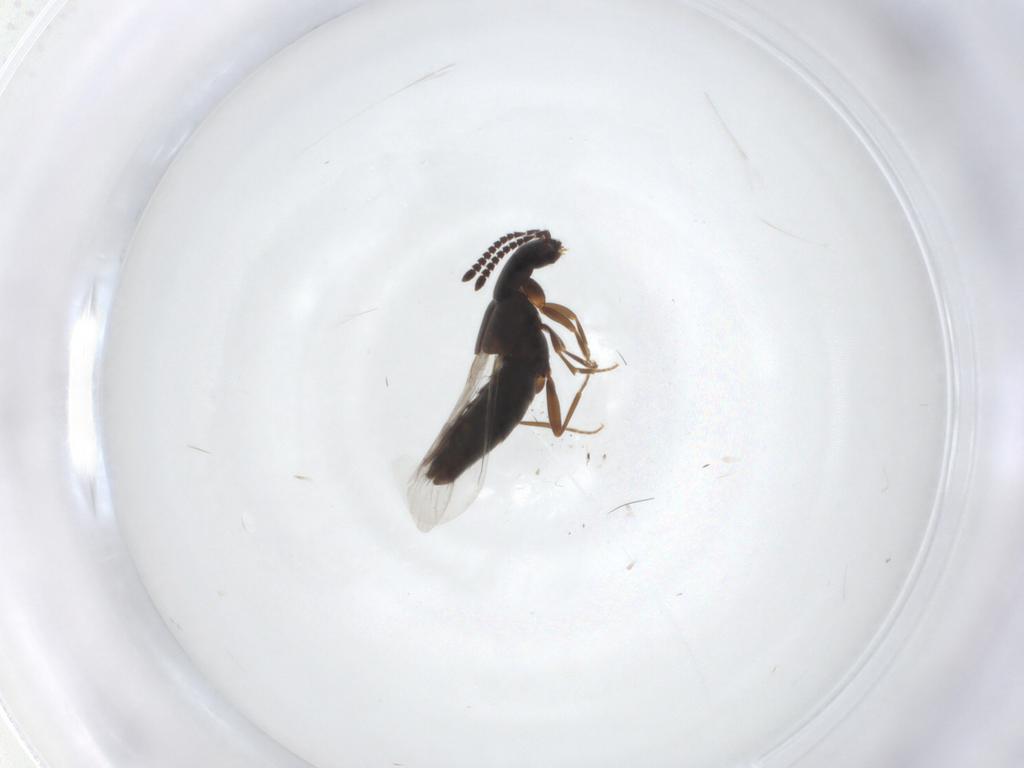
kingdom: Animalia
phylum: Arthropoda
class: Insecta
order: Coleoptera
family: Staphylinidae
